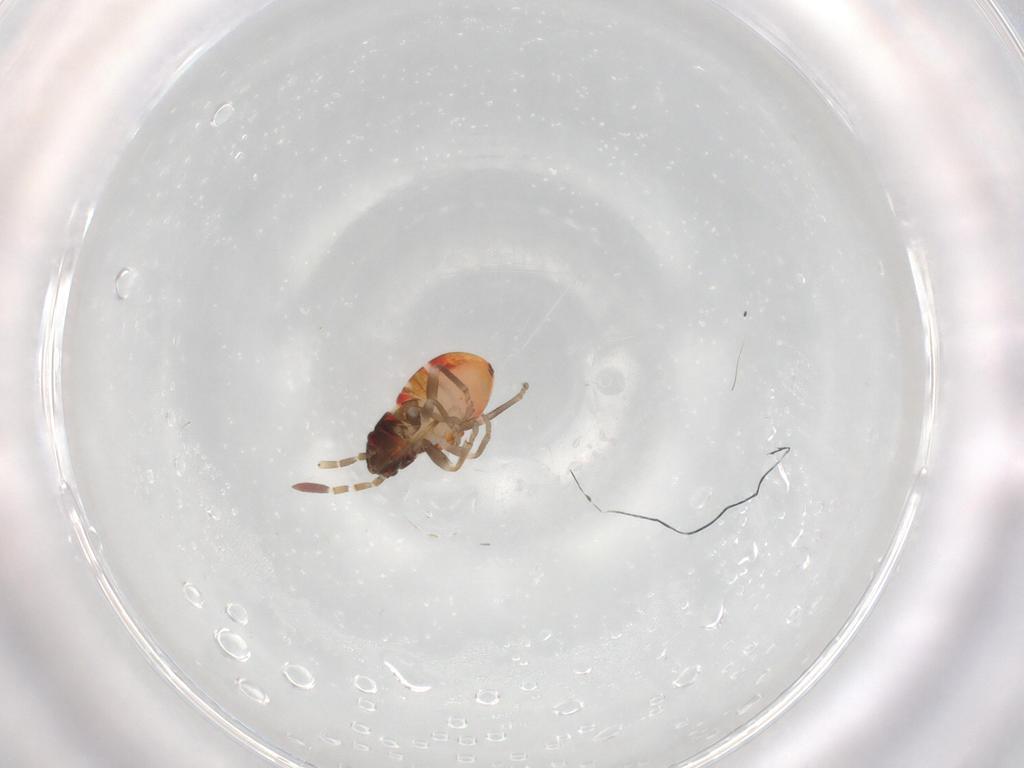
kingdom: Animalia
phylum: Arthropoda
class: Insecta
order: Hemiptera
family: Rhyparochromidae
